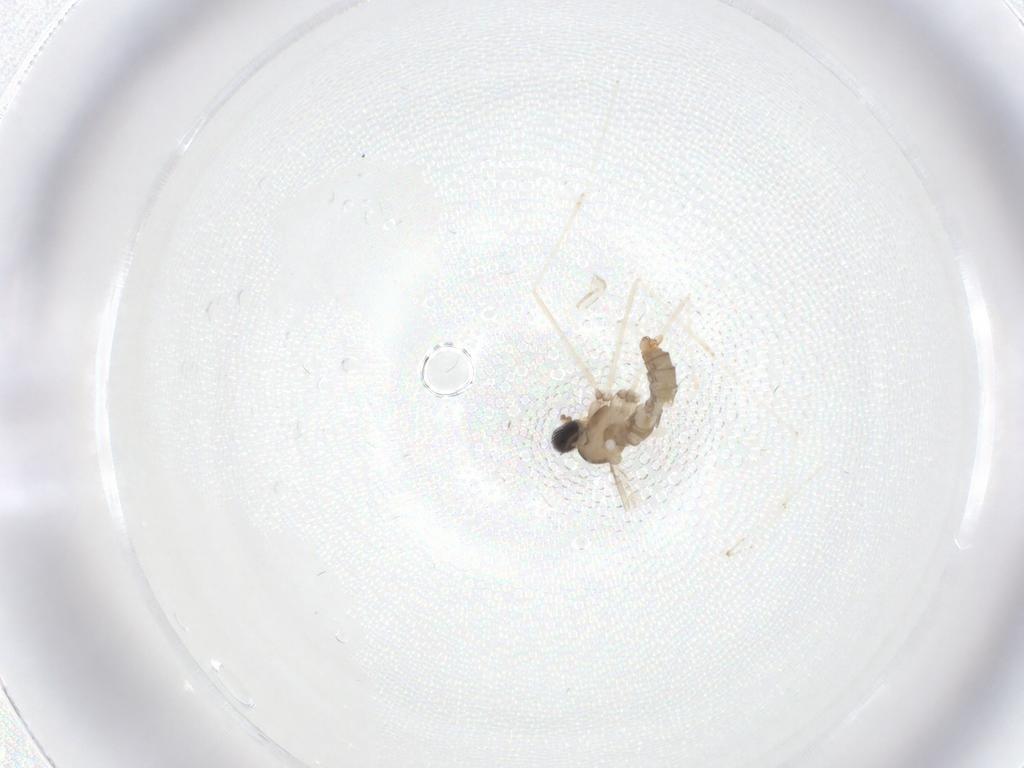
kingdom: Animalia
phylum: Arthropoda
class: Insecta
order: Diptera
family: Cecidomyiidae
